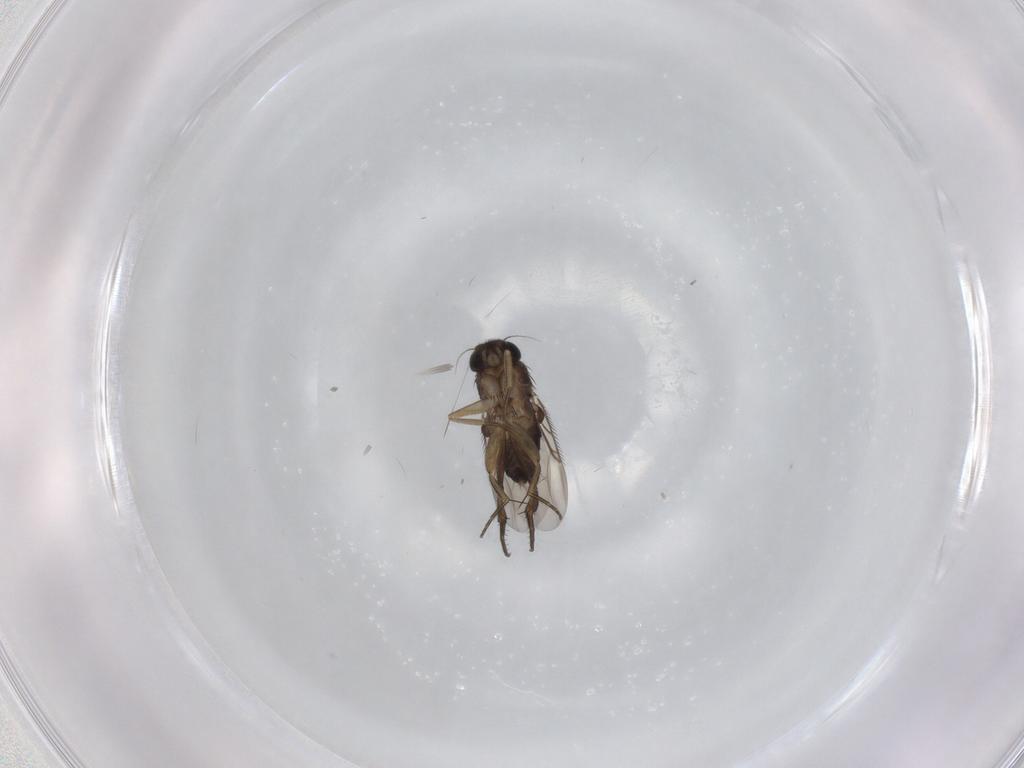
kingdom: Animalia
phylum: Arthropoda
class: Insecta
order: Diptera
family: Phoridae
